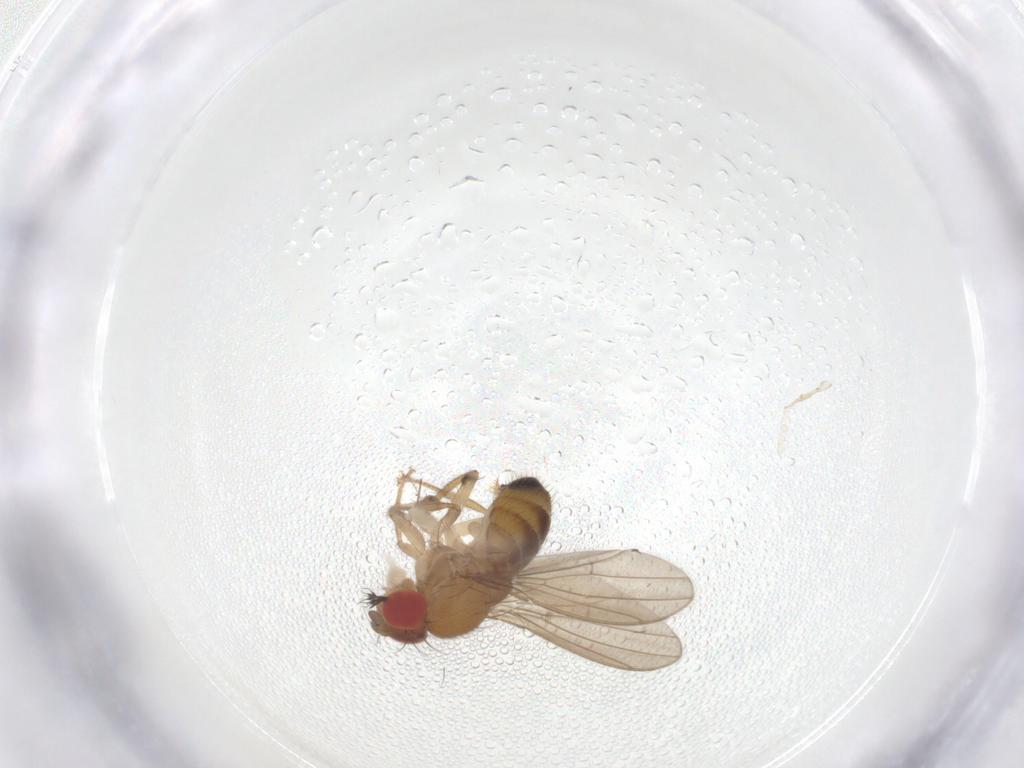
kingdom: Animalia
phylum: Arthropoda
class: Insecta
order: Diptera
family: Drosophilidae
